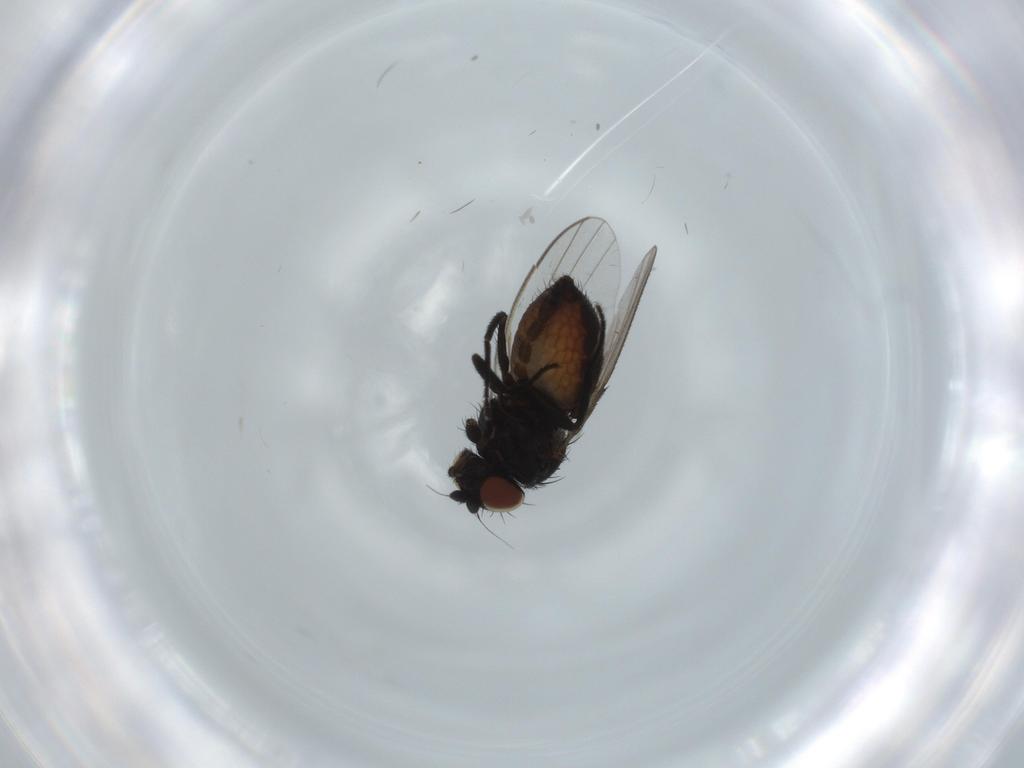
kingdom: Animalia
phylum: Arthropoda
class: Insecta
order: Diptera
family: Milichiidae
